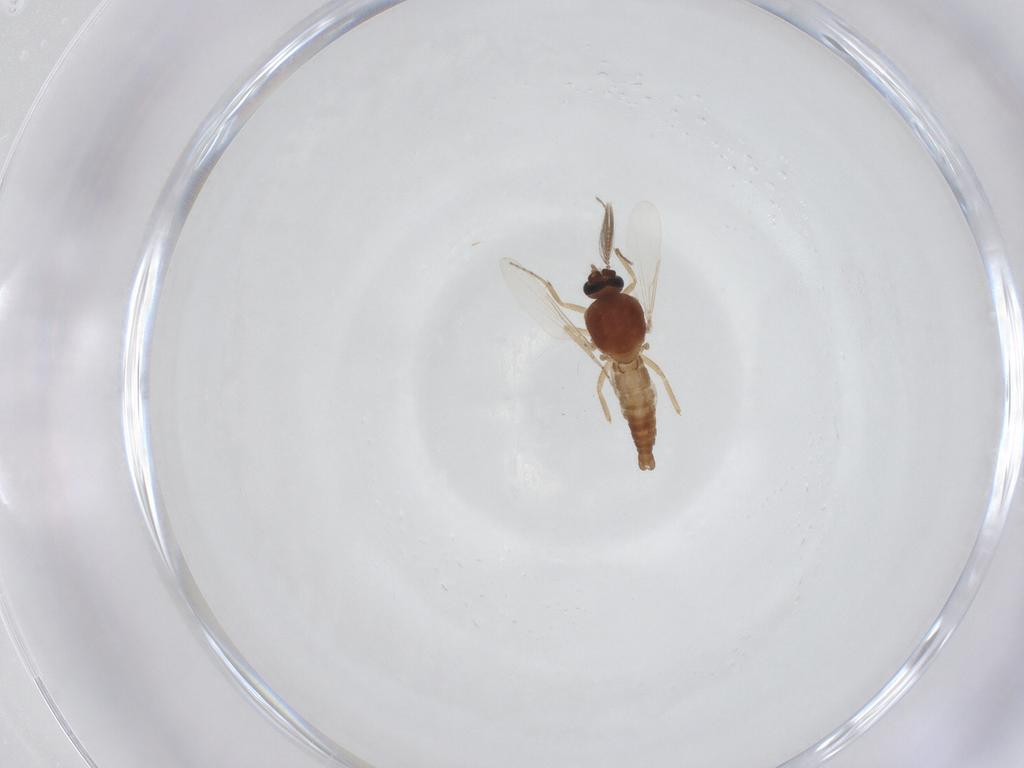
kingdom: Animalia
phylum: Arthropoda
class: Insecta
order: Diptera
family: Ceratopogonidae
